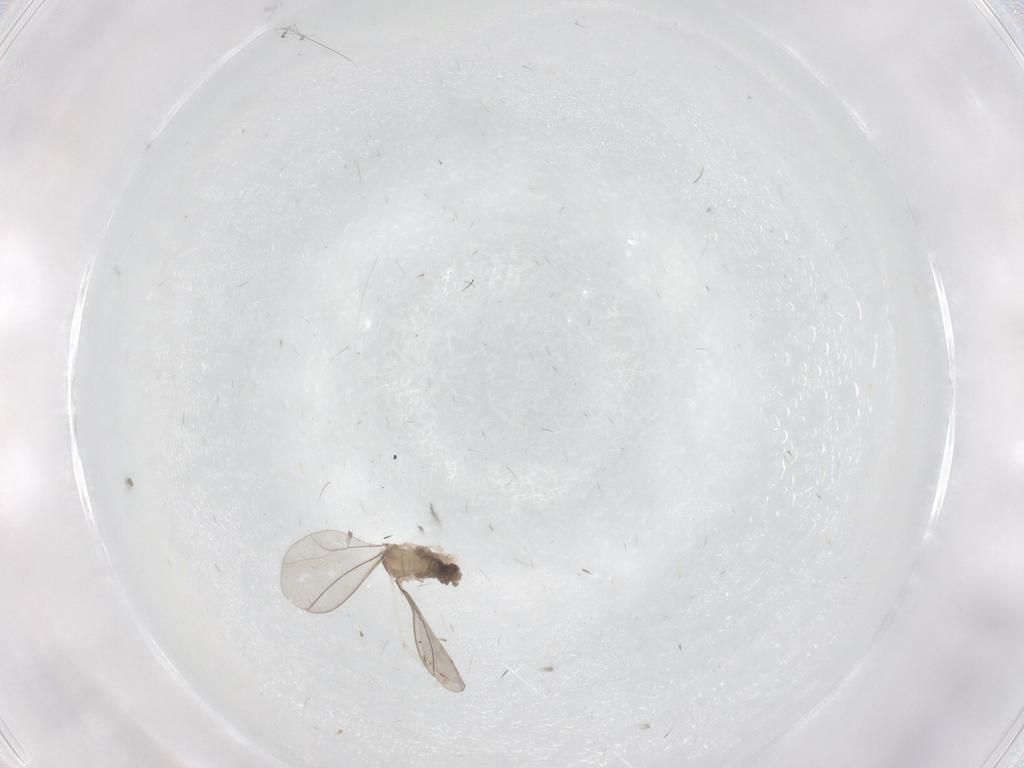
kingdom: Animalia
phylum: Arthropoda
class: Insecta
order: Diptera
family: Cecidomyiidae
